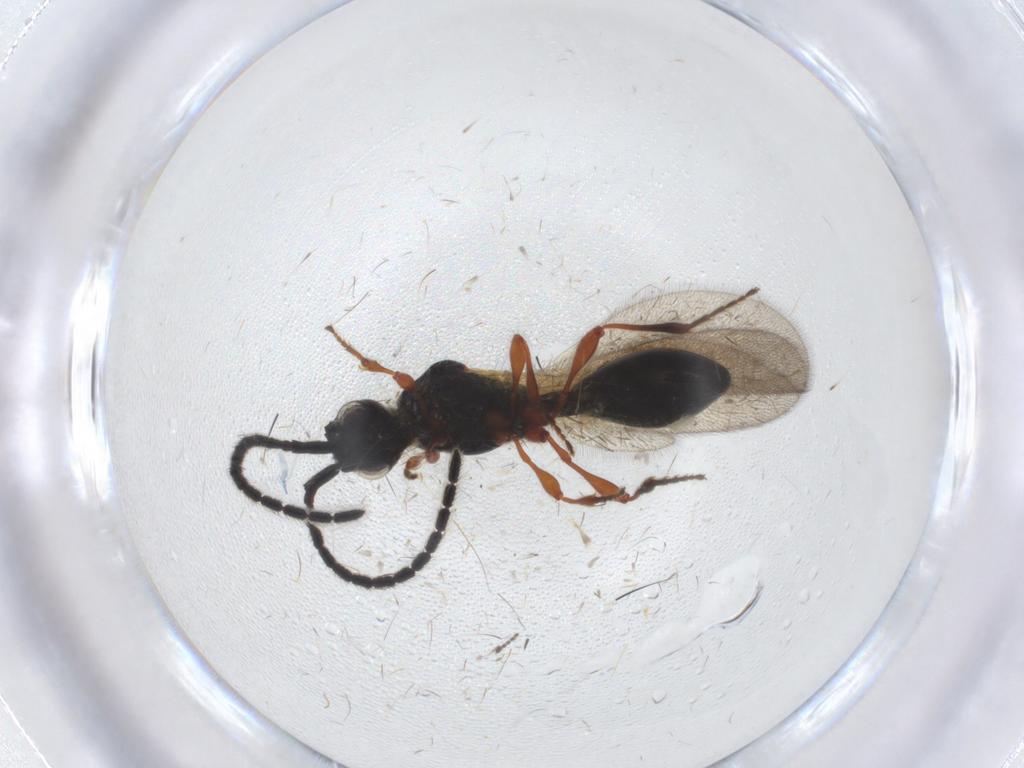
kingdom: Animalia
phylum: Arthropoda
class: Insecta
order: Hymenoptera
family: Diapriidae
